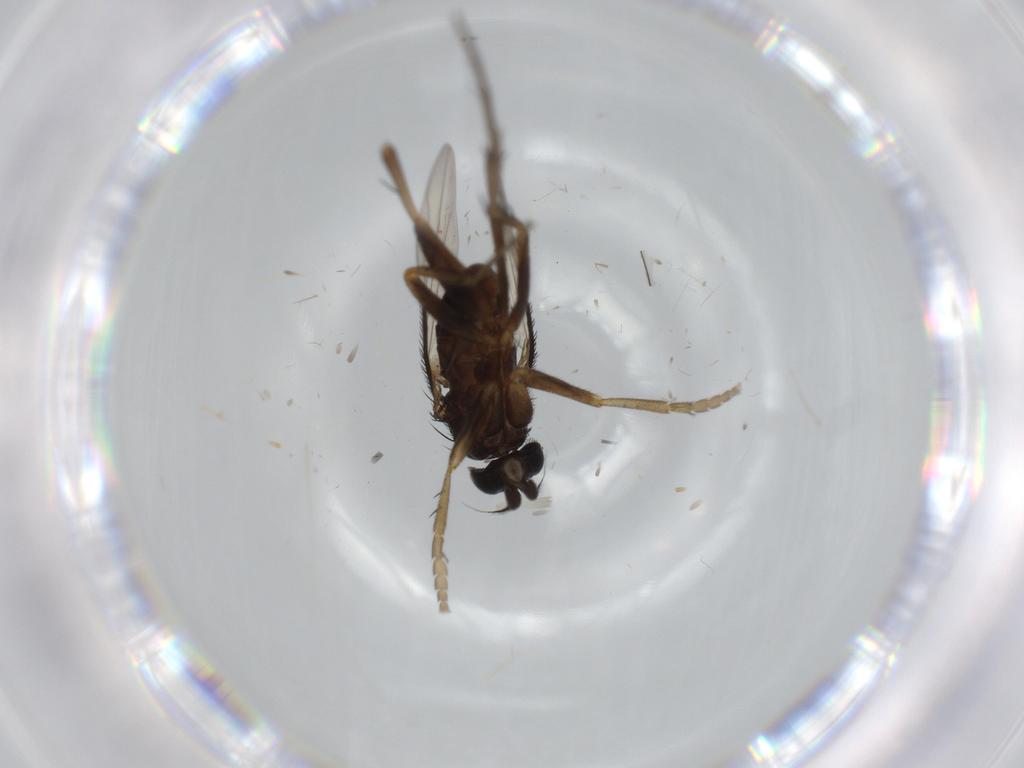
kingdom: Animalia
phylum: Arthropoda
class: Insecta
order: Diptera
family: Phoridae
